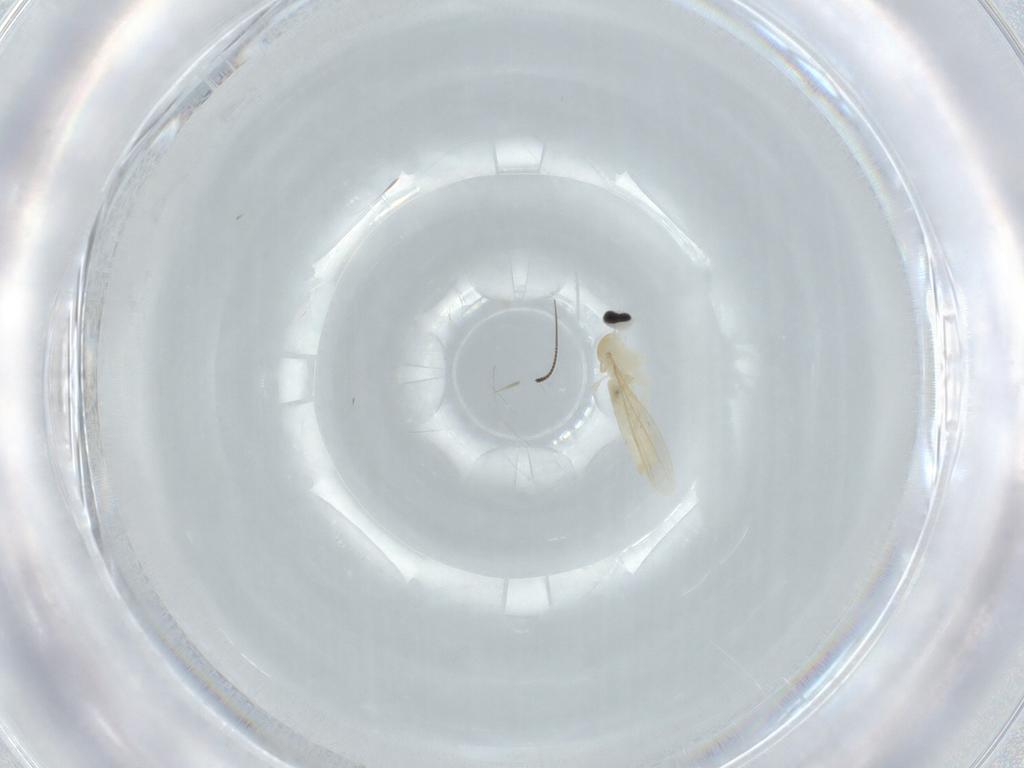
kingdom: Animalia
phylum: Arthropoda
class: Insecta
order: Diptera
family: Cecidomyiidae
